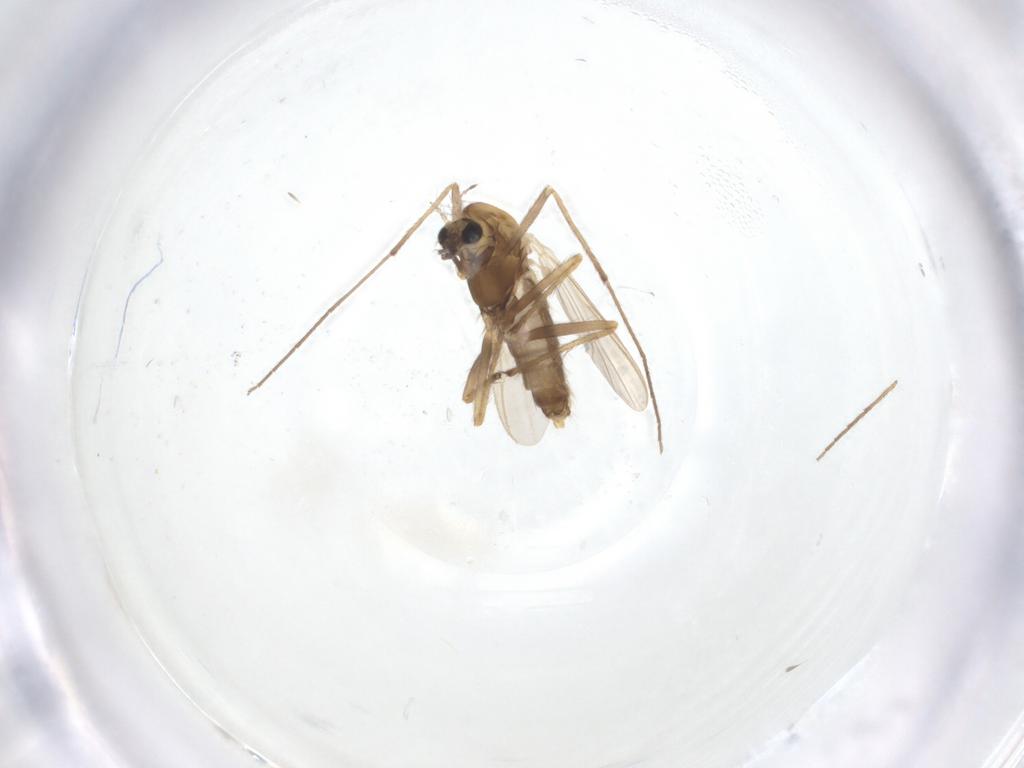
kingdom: Animalia
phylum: Arthropoda
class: Insecta
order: Diptera
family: Chironomidae
